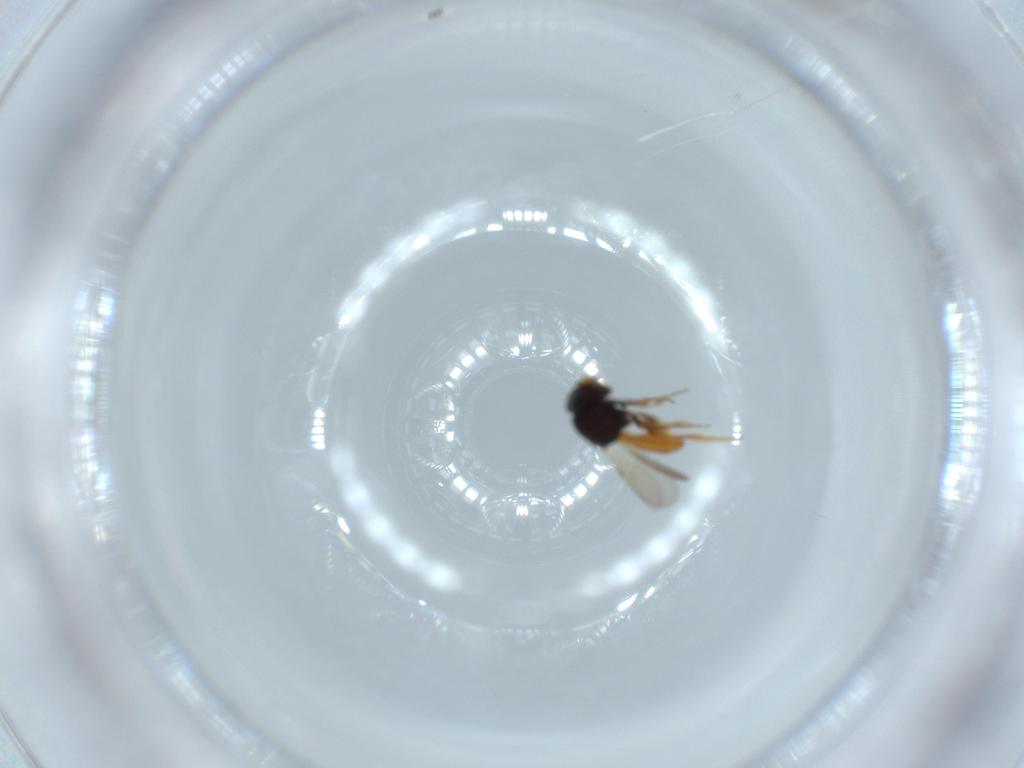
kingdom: Animalia
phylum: Arthropoda
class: Insecta
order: Hymenoptera
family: Scelionidae
